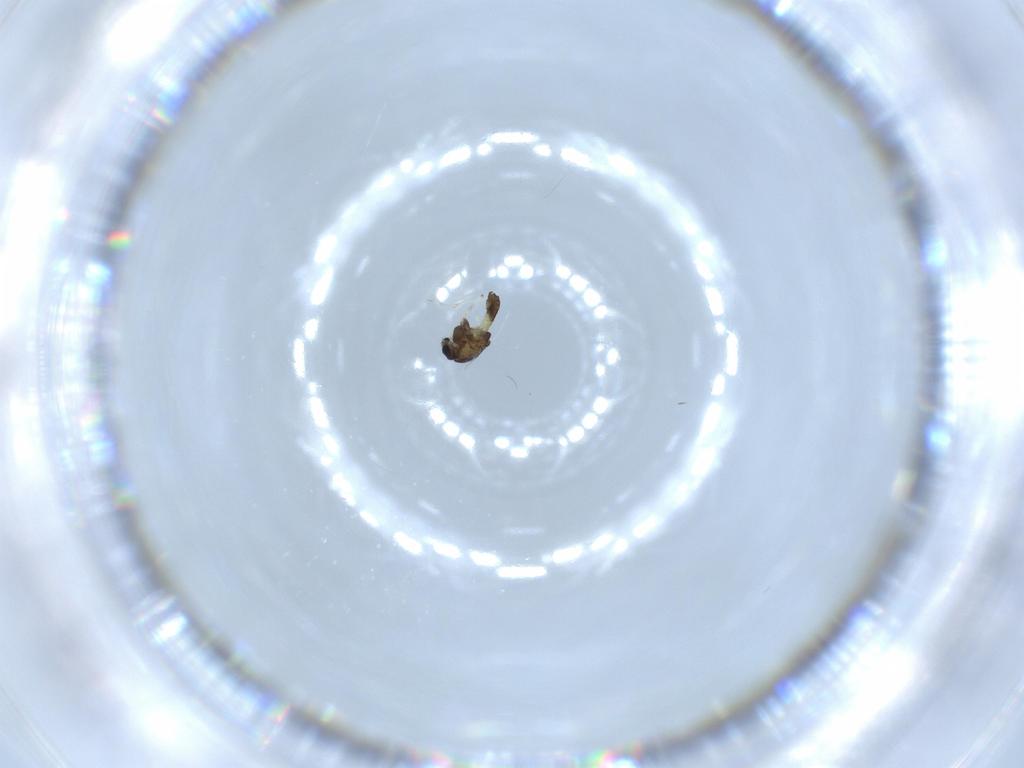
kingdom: Animalia
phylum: Arthropoda
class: Insecta
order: Diptera
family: Chironomidae
